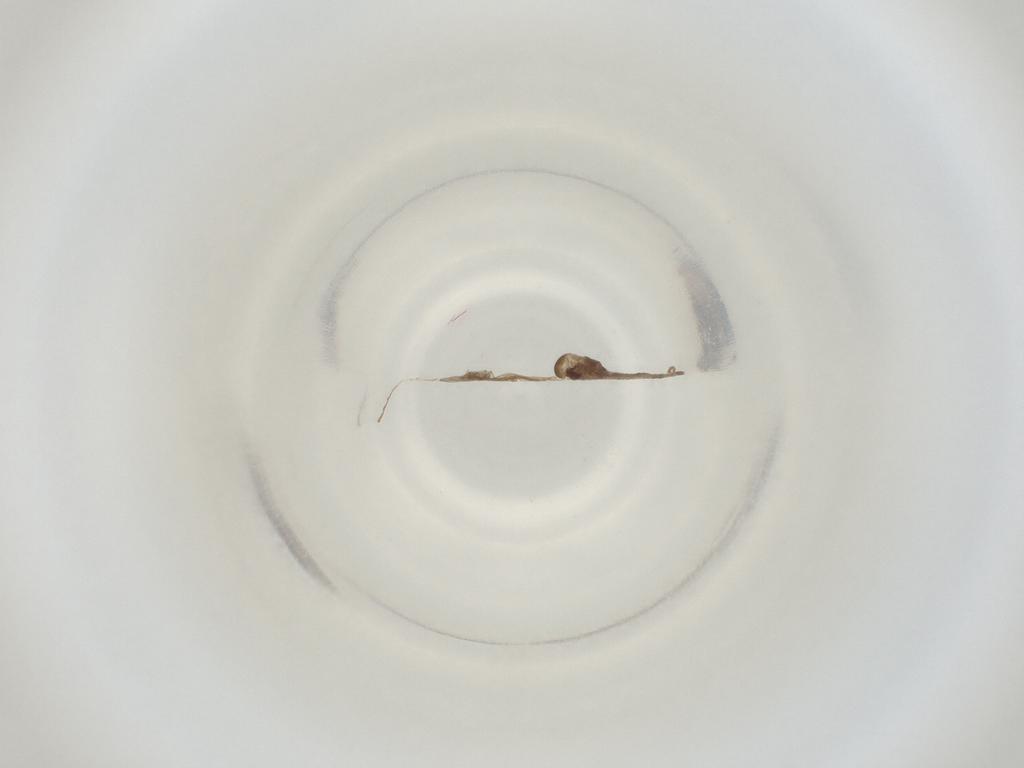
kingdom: Animalia
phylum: Arthropoda
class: Insecta
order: Diptera
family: Cecidomyiidae
